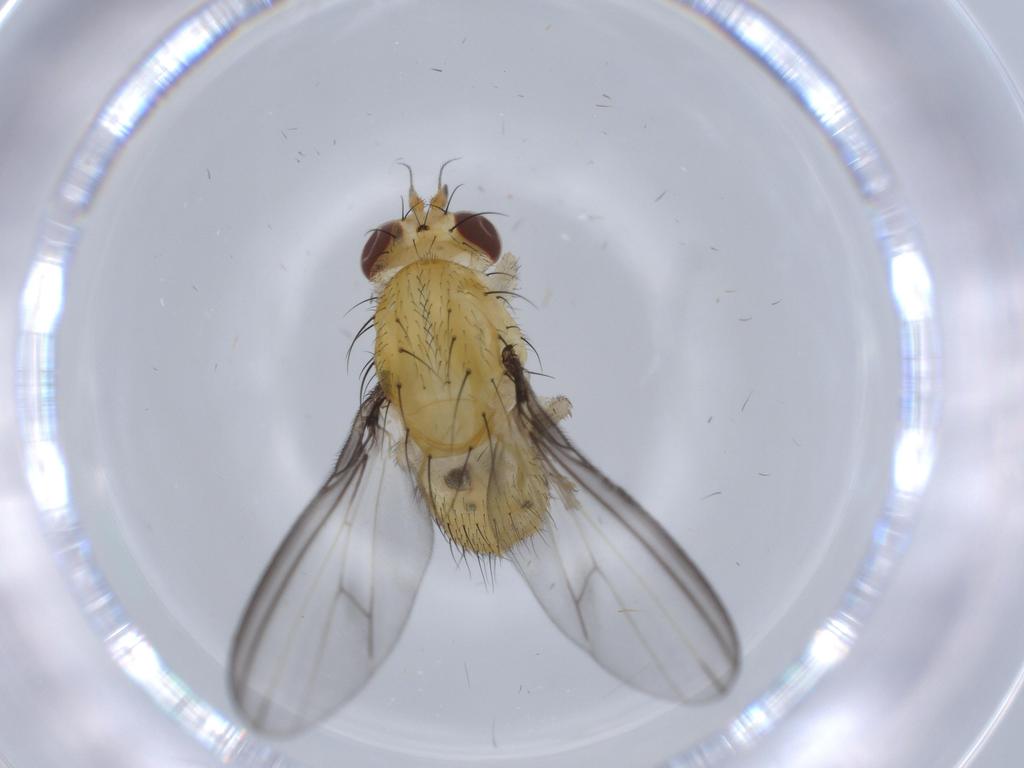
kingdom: Animalia
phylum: Arthropoda
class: Insecta
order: Diptera
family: Lauxaniidae
